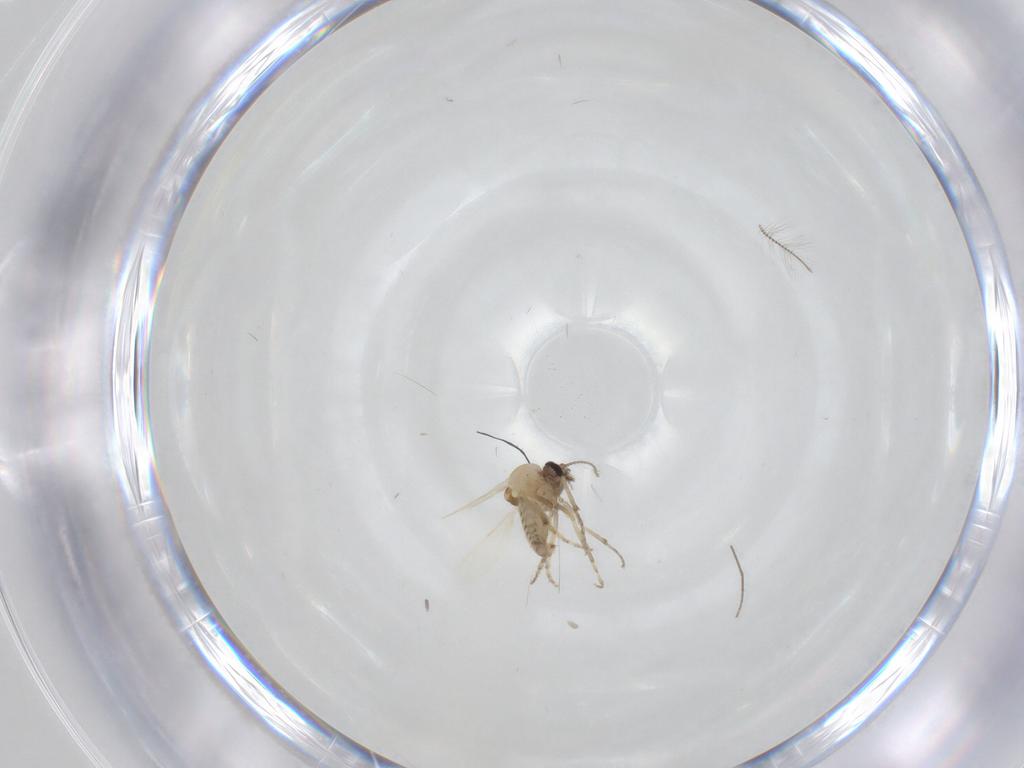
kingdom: Animalia
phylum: Arthropoda
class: Insecta
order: Diptera
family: Ceratopogonidae
